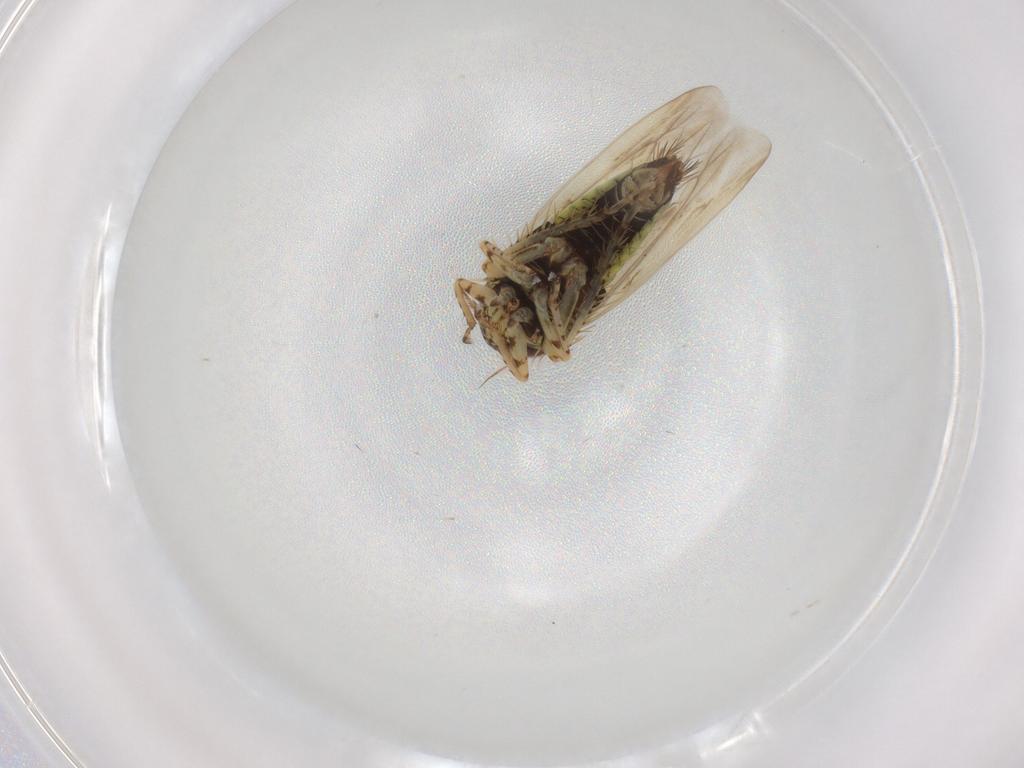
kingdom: Animalia
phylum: Arthropoda
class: Insecta
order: Hemiptera
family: Cicadellidae
